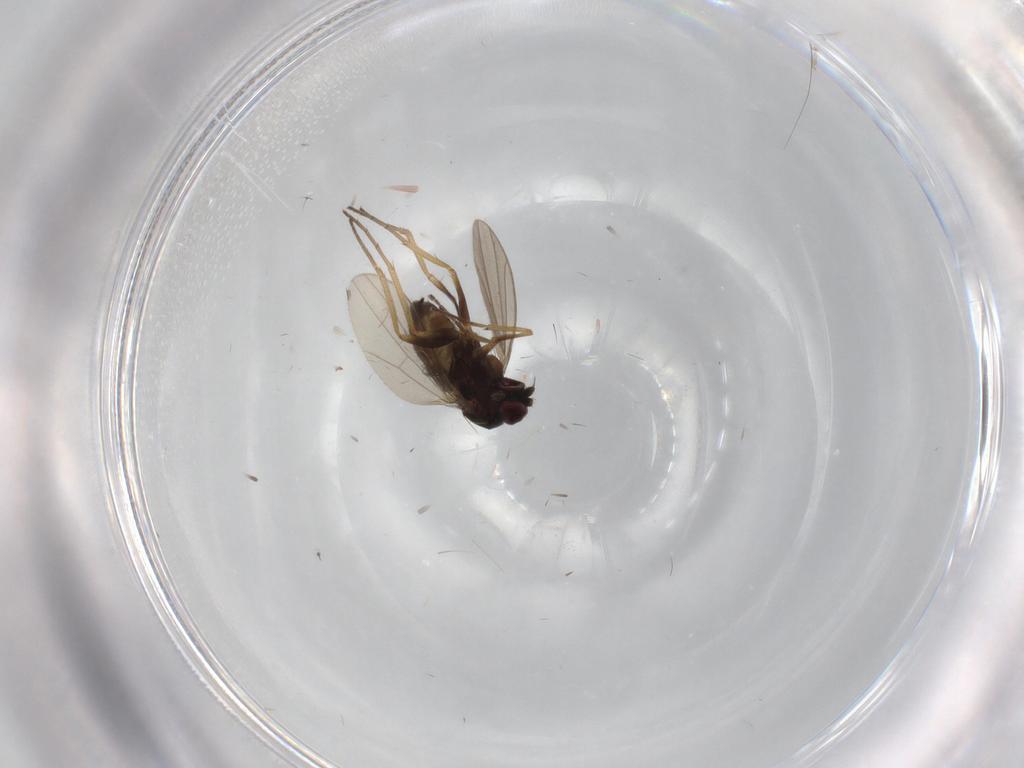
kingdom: Animalia
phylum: Arthropoda
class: Insecta
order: Diptera
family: Dolichopodidae
